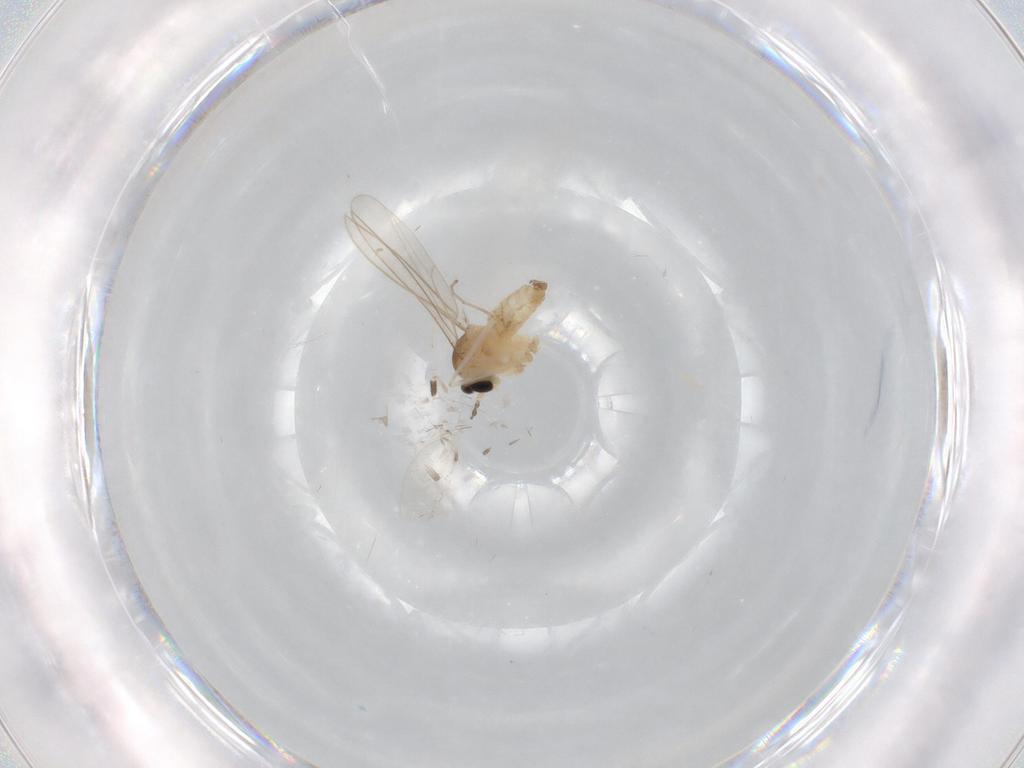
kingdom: Animalia
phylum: Arthropoda
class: Insecta
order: Diptera
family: Cecidomyiidae
